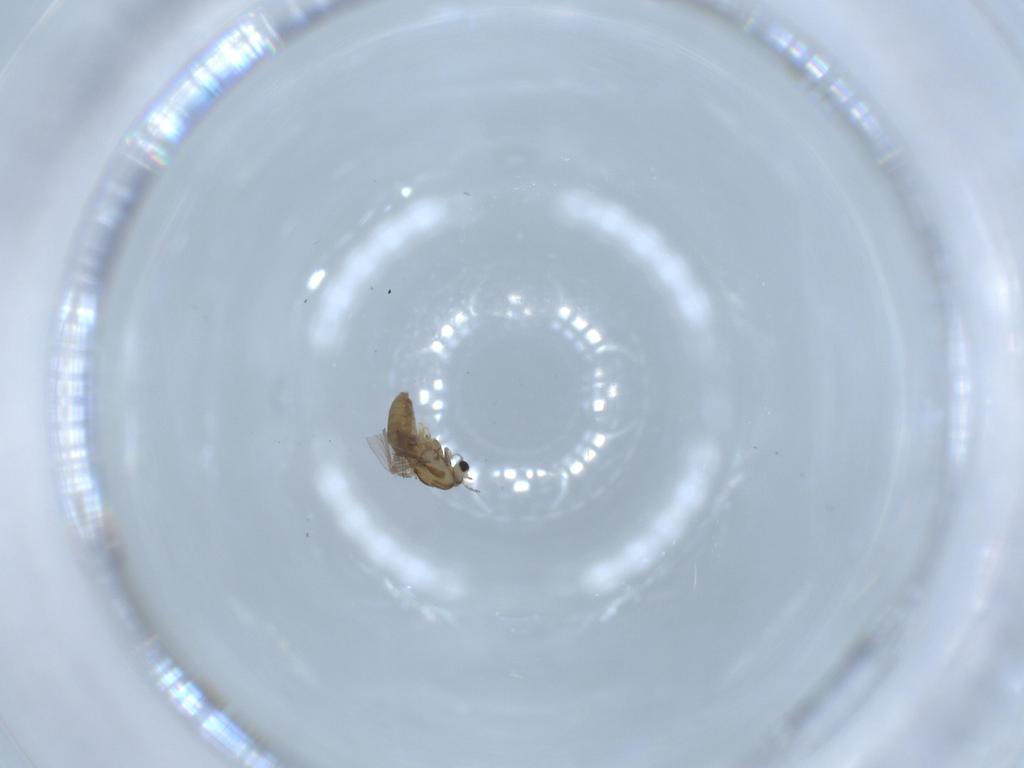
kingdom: Animalia
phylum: Arthropoda
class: Insecta
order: Diptera
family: Chironomidae
